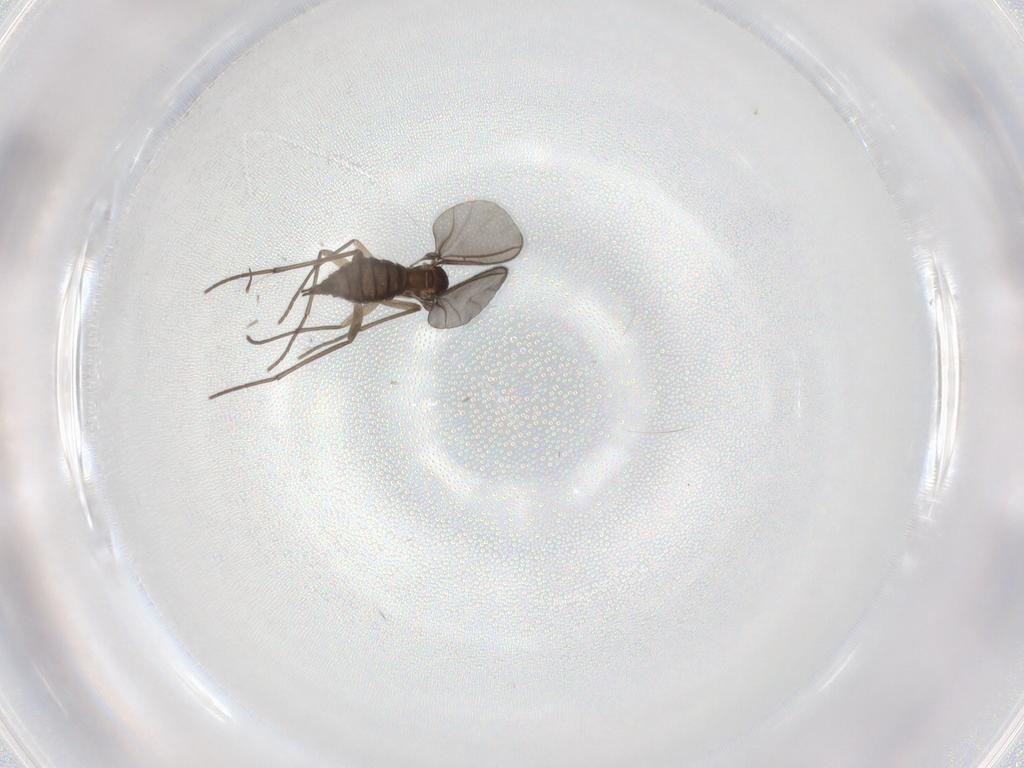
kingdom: Animalia
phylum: Arthropoda
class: Insecta
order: Diptera
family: Sciaridae
